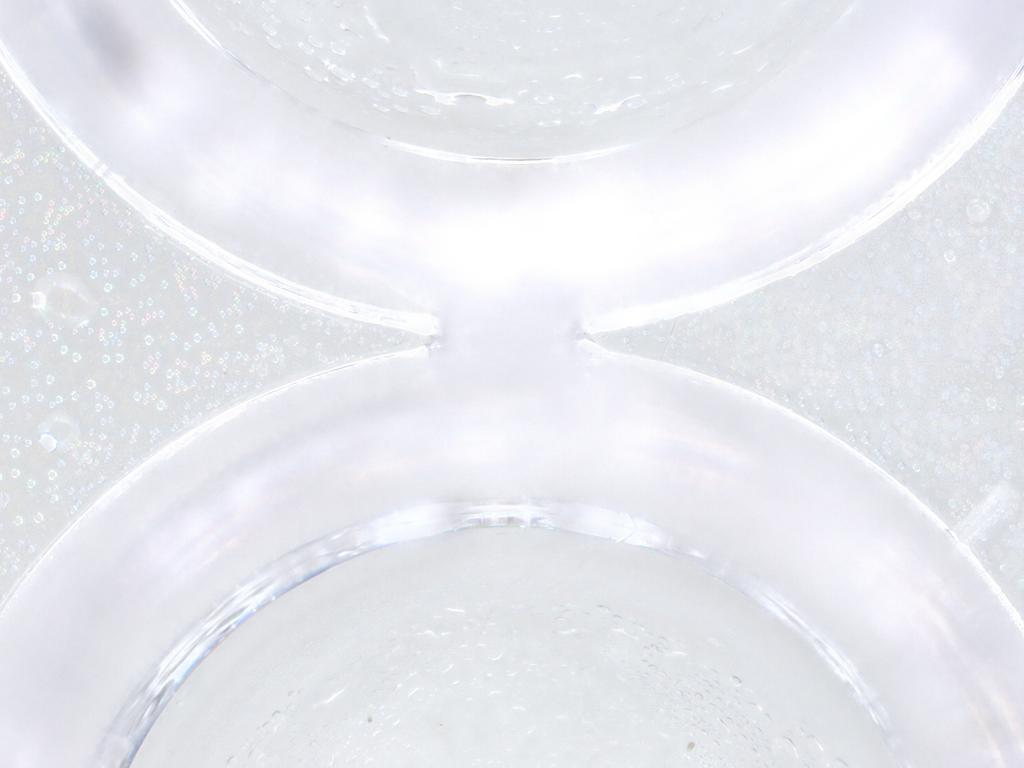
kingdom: Animalia
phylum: Arthropoda
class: Insecta
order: Diptera
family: Psychodidae
